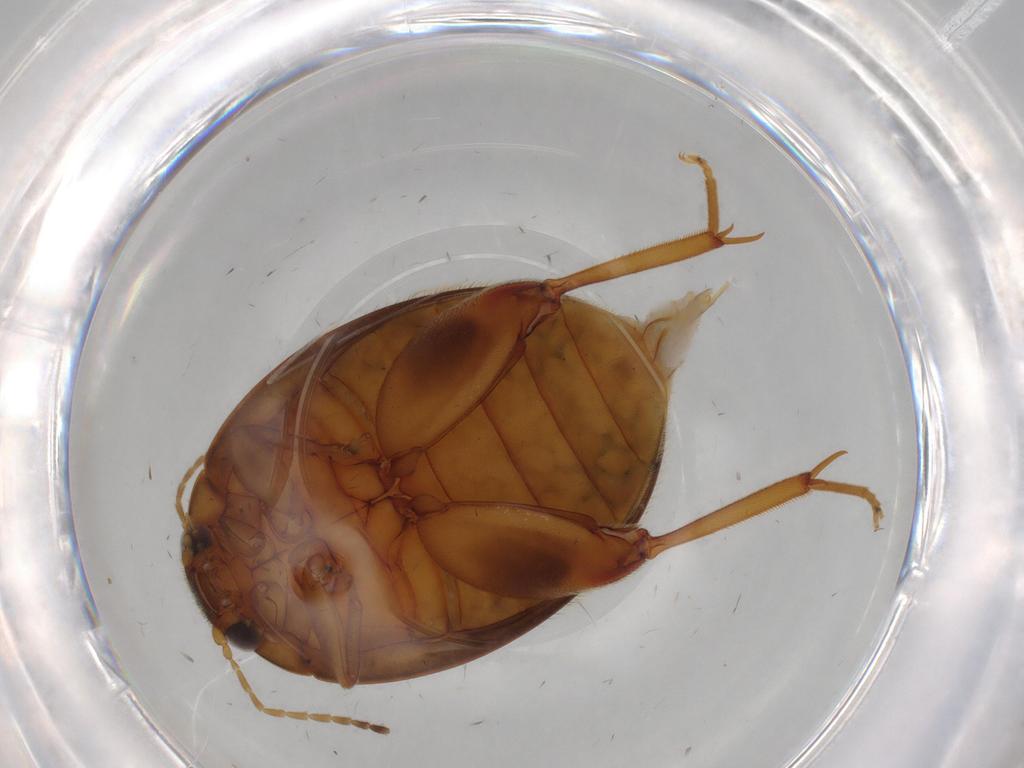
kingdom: Animalia
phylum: Arthropoda
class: Insecta
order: Coleoptera
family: Scirtidae
